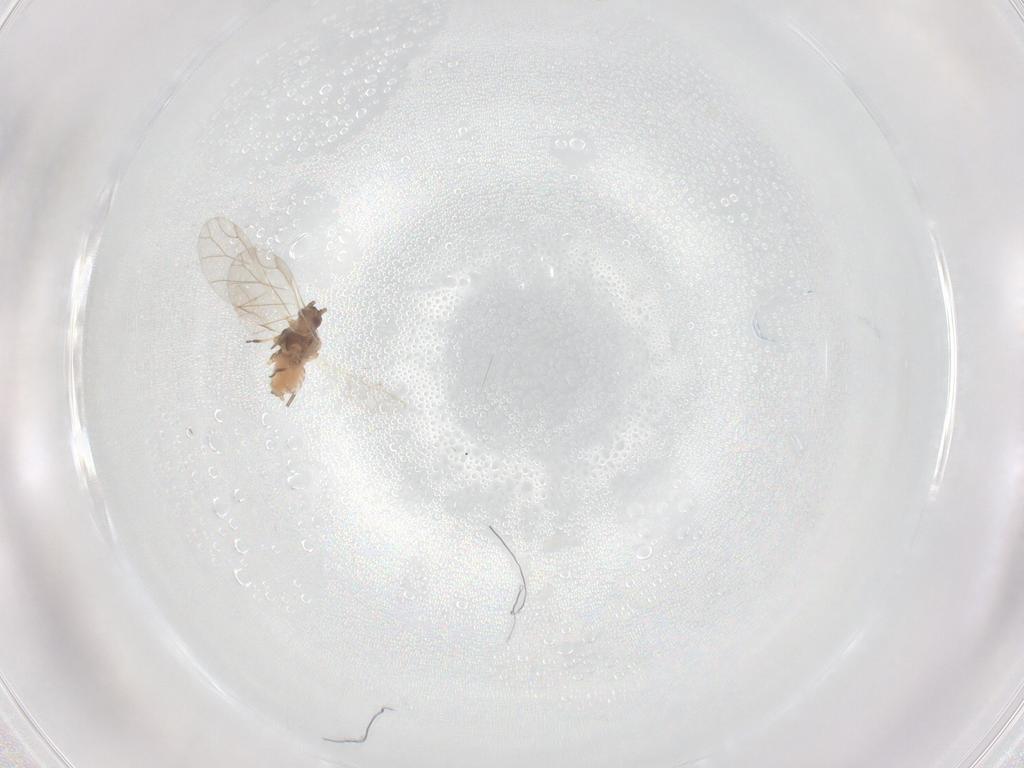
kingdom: Animalia
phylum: Arthropoda
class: Insecta
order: Hemiptera
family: Aphididae
